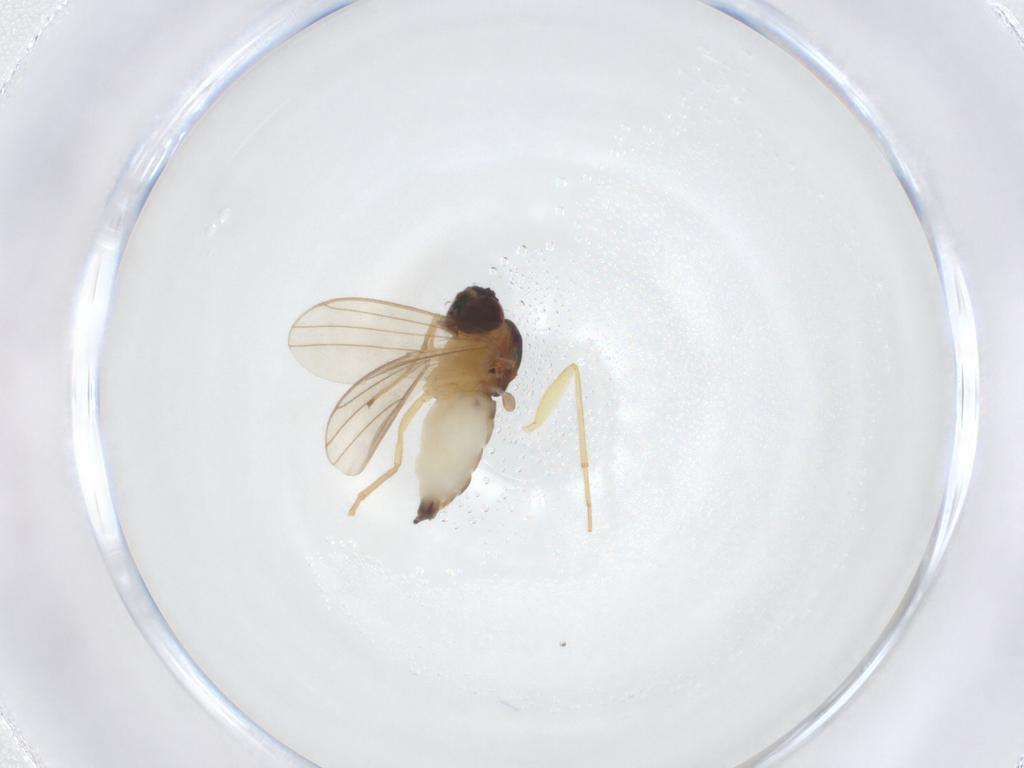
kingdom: Animalia
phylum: Arthropoda
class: Insecta
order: Diptera
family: Dolichopodidae
